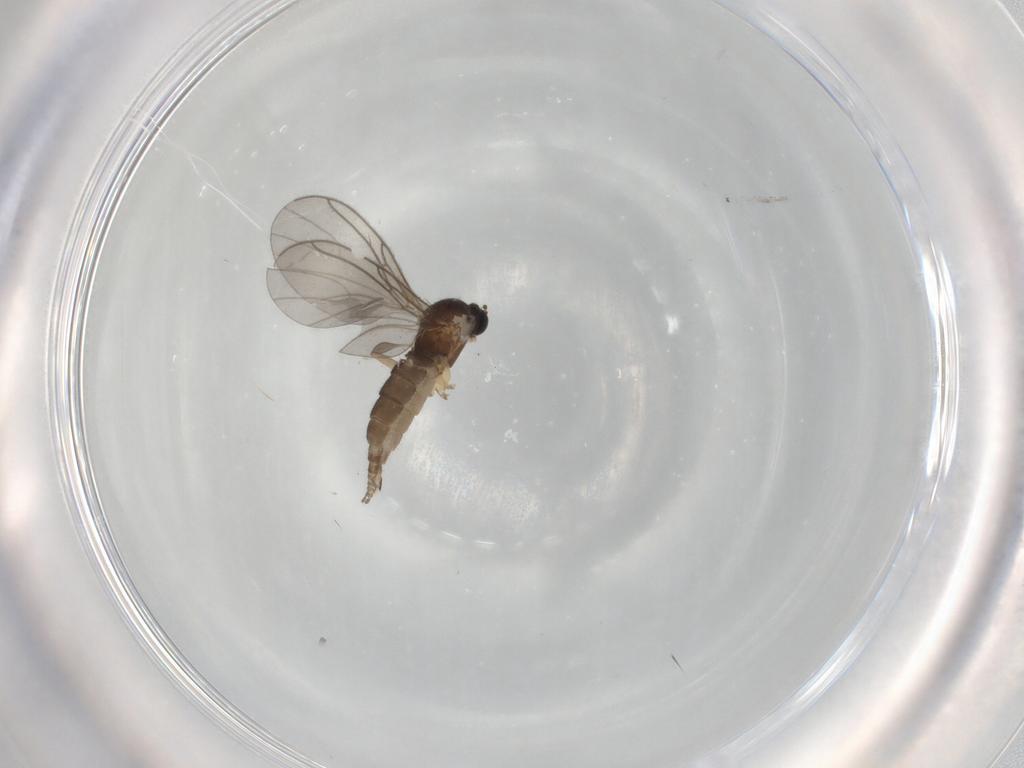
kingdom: Animalia
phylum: Arthropoda
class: Insecta
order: Diptera
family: Sciaridae
